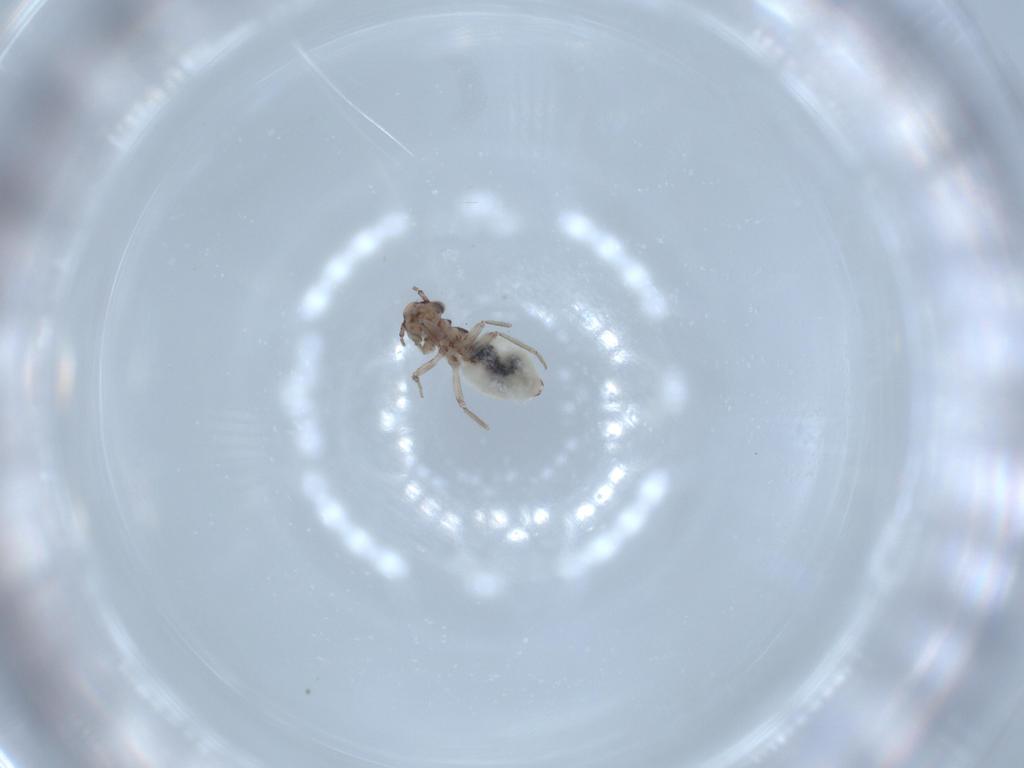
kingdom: Animalia
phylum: Arthropoda
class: Insecta
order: Psocodea
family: Lepidopsocidae
